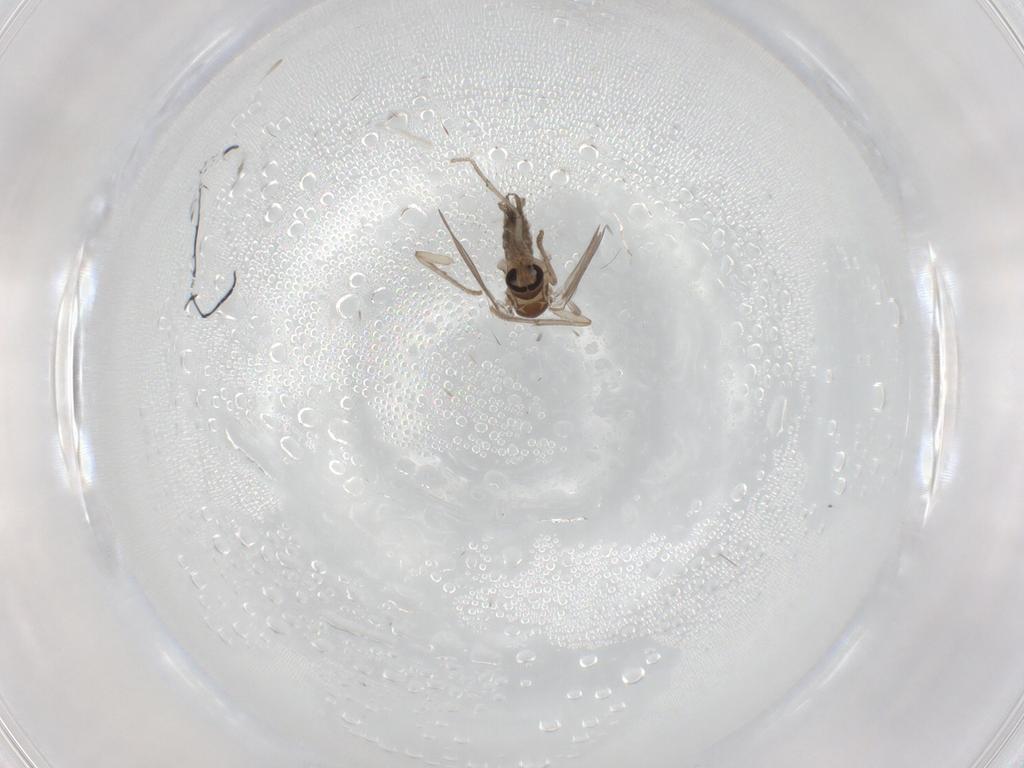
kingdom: Animalia
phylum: Arthropoda
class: Insecta
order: Diptera
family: Psychodidae
